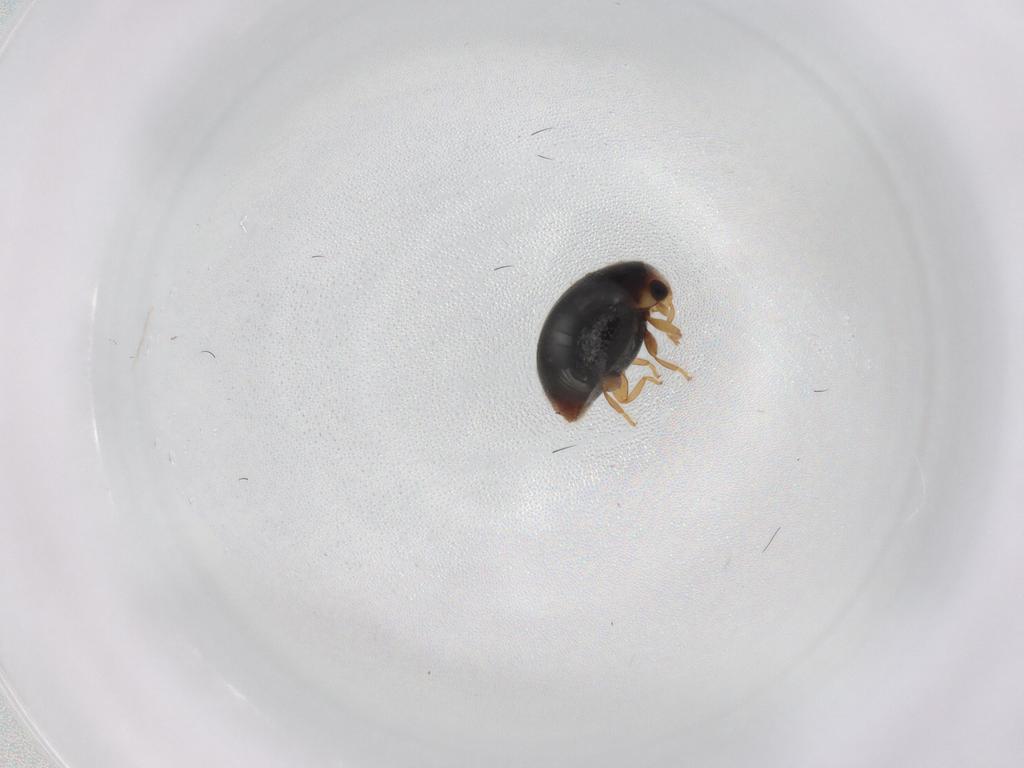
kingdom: Animalia
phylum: Arthropoda
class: Insecta
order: Coleoptera
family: Coccinellidae
